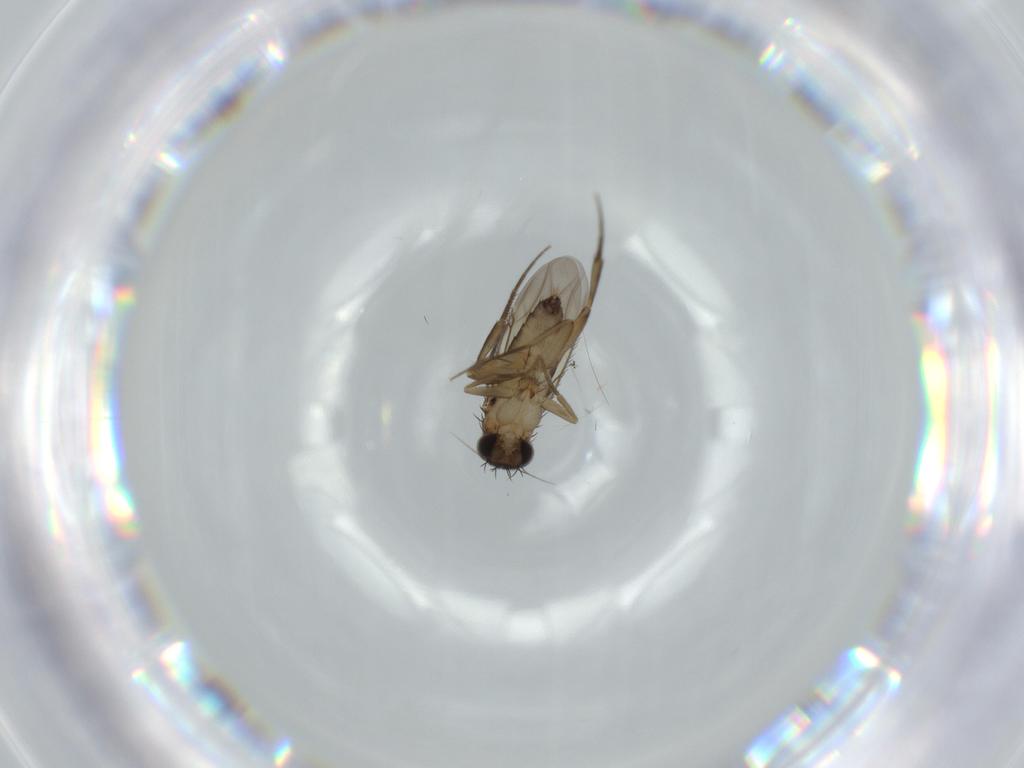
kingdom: Animalia
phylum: Arthropoda
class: Insecta
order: Diptera
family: Phoridae
